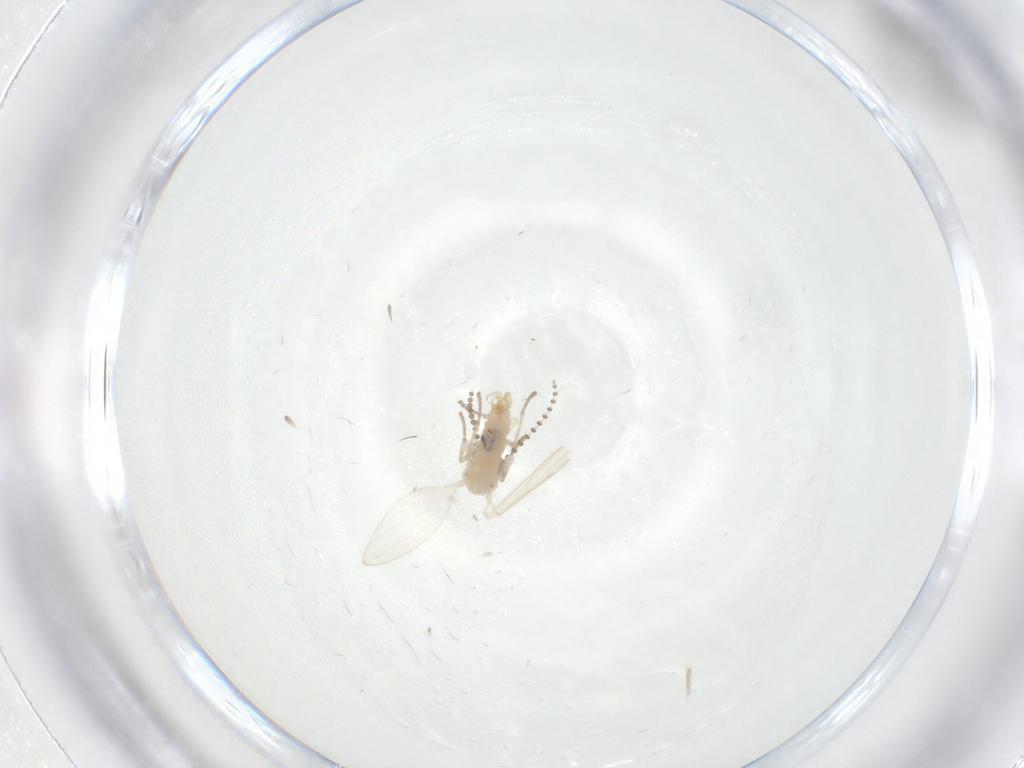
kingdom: Animalia
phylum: Arthropoda
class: Insecta
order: Diptera
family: Psychodidae
